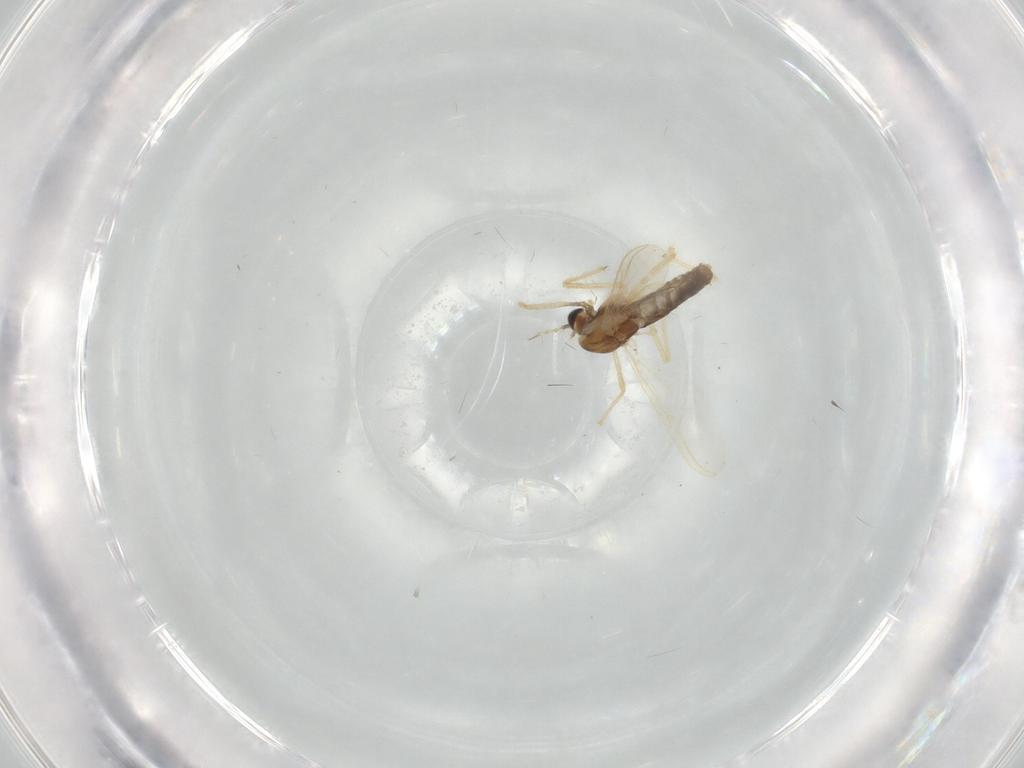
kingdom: Animalia
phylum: Arthropoda
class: Insecta
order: Diptera
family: Chironomidae
